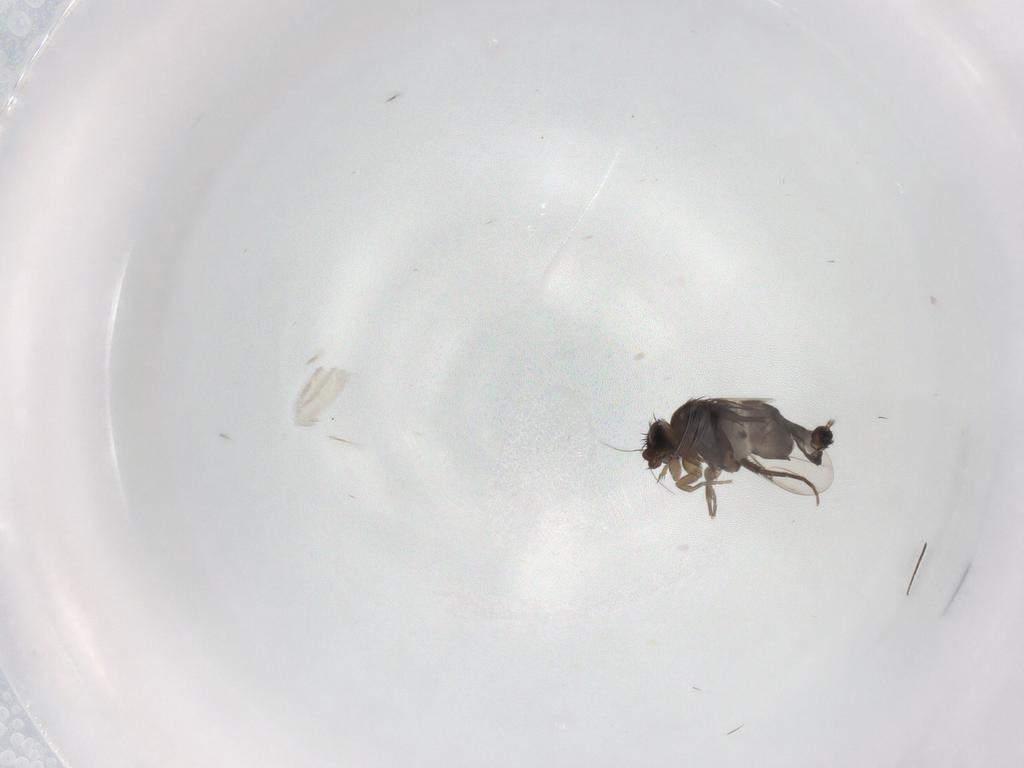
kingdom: Animalia
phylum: Arthropoda
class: Insecta
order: Diptera
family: Phoridae
